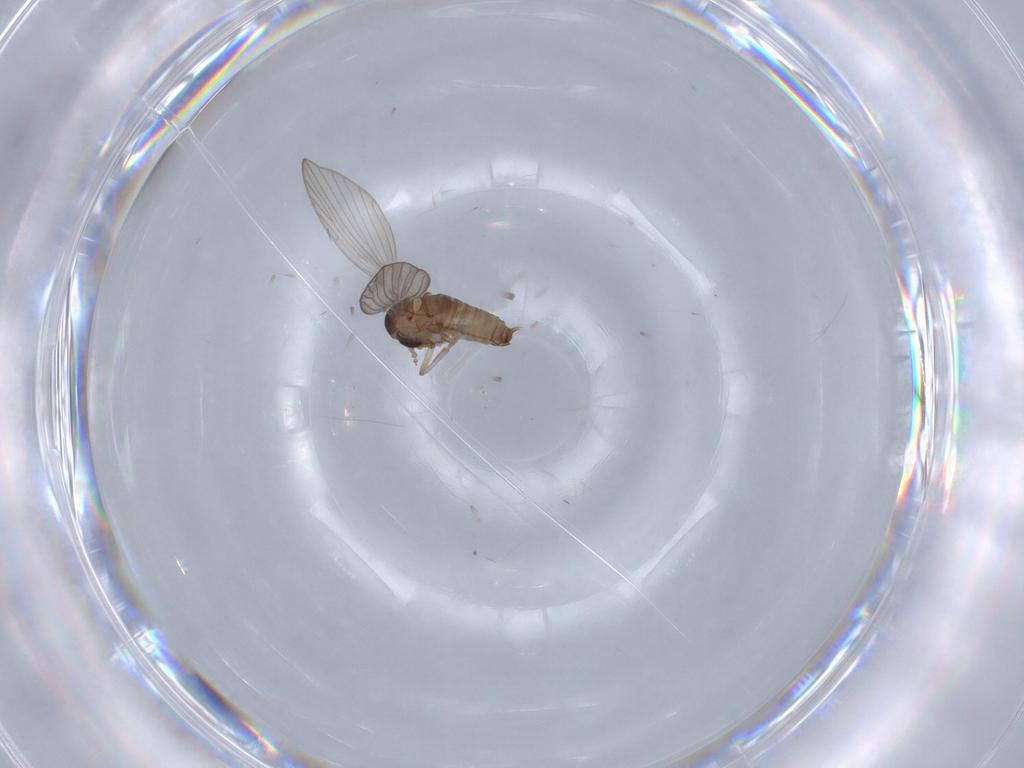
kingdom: Animalia
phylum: Arthropoda
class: Insecta
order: Diptera
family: Psychodidae
